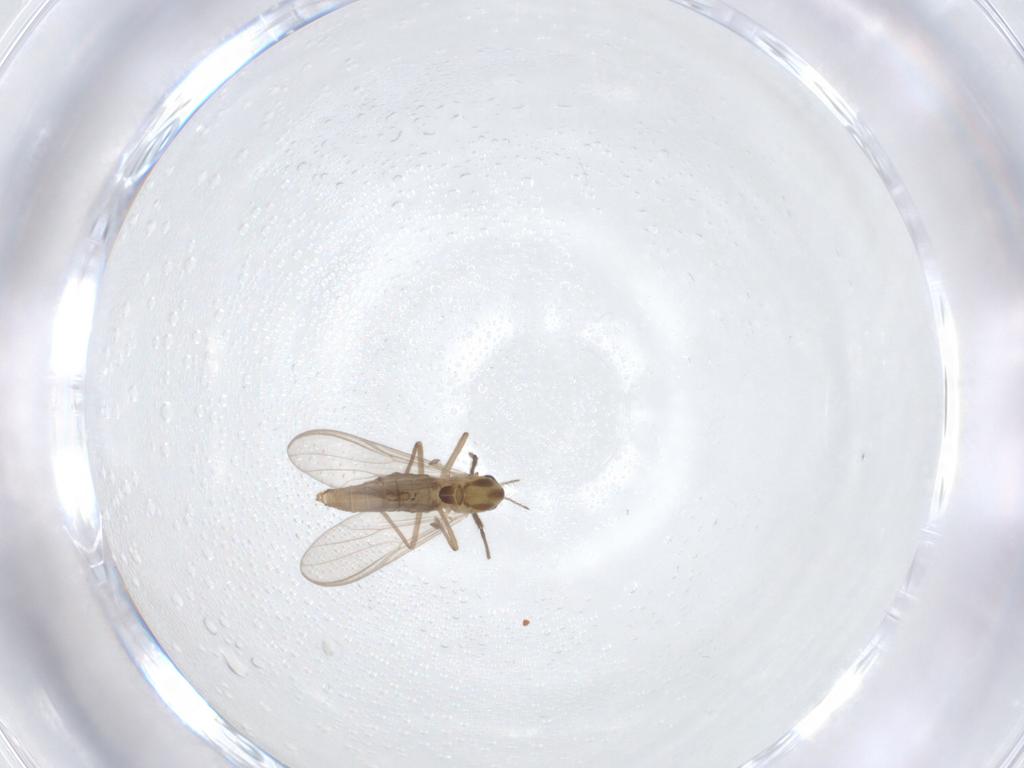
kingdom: Animalia
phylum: Arthropoda
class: Insecta
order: Diptera
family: Chironomidae
